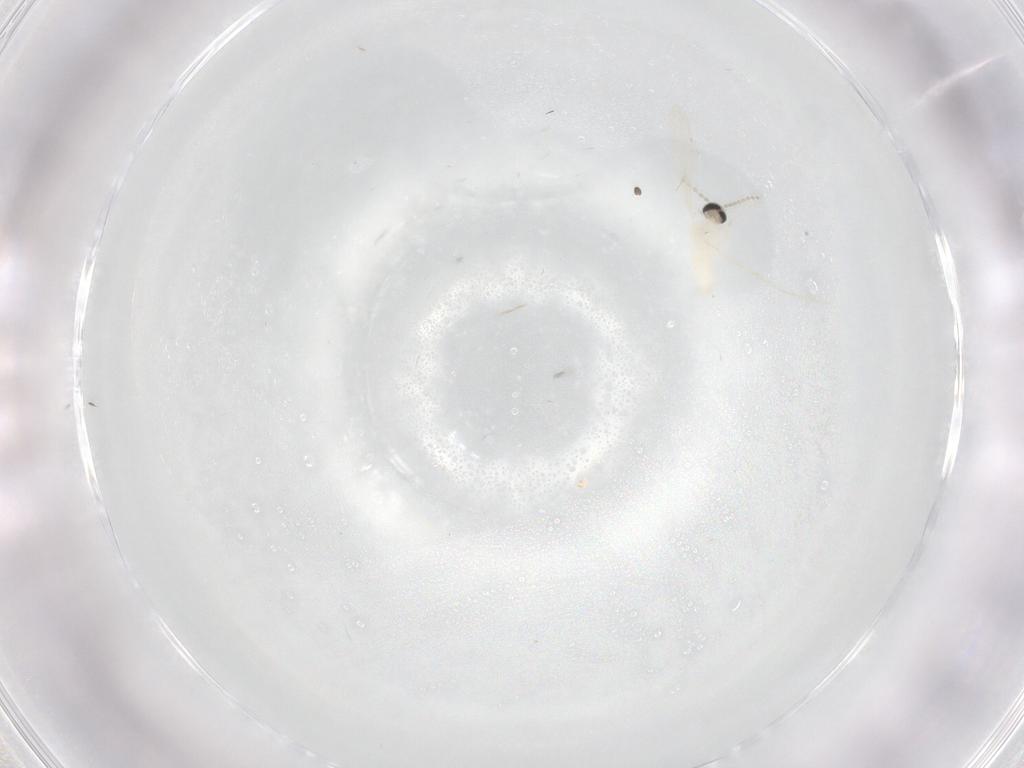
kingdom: Animalia
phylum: Arthropoda
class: Insecta
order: Diptera
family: Cecidomyiidae
